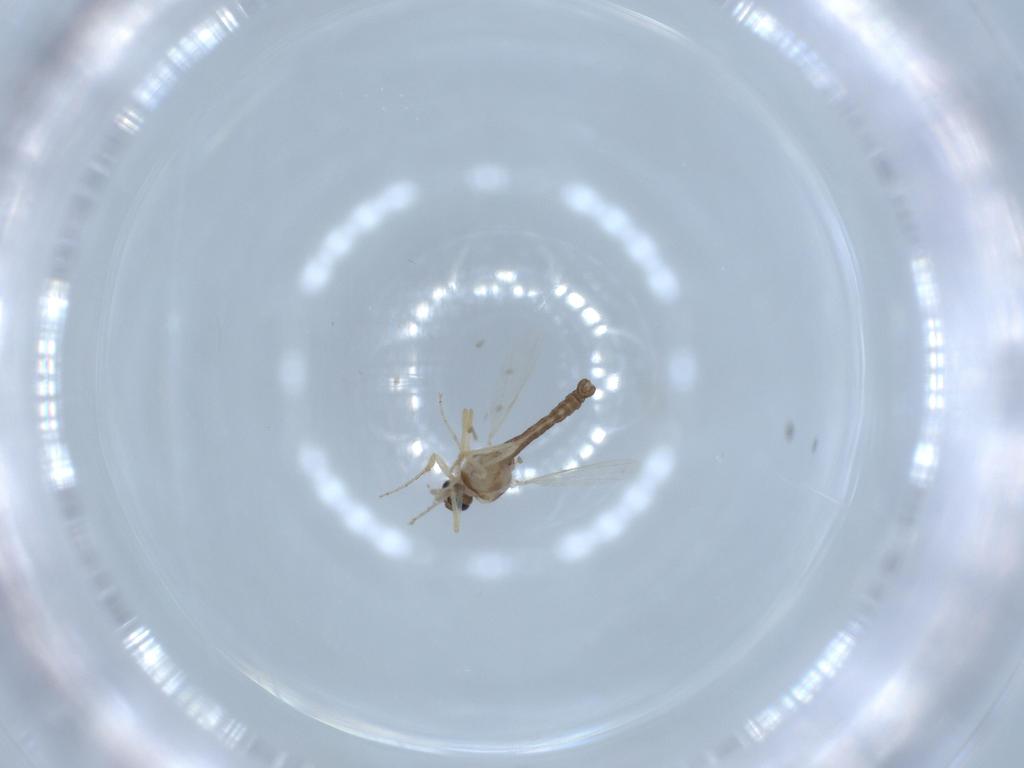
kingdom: Animalia
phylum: Arthropoda
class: Insecta
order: Diptera
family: Ceratopogonidae
